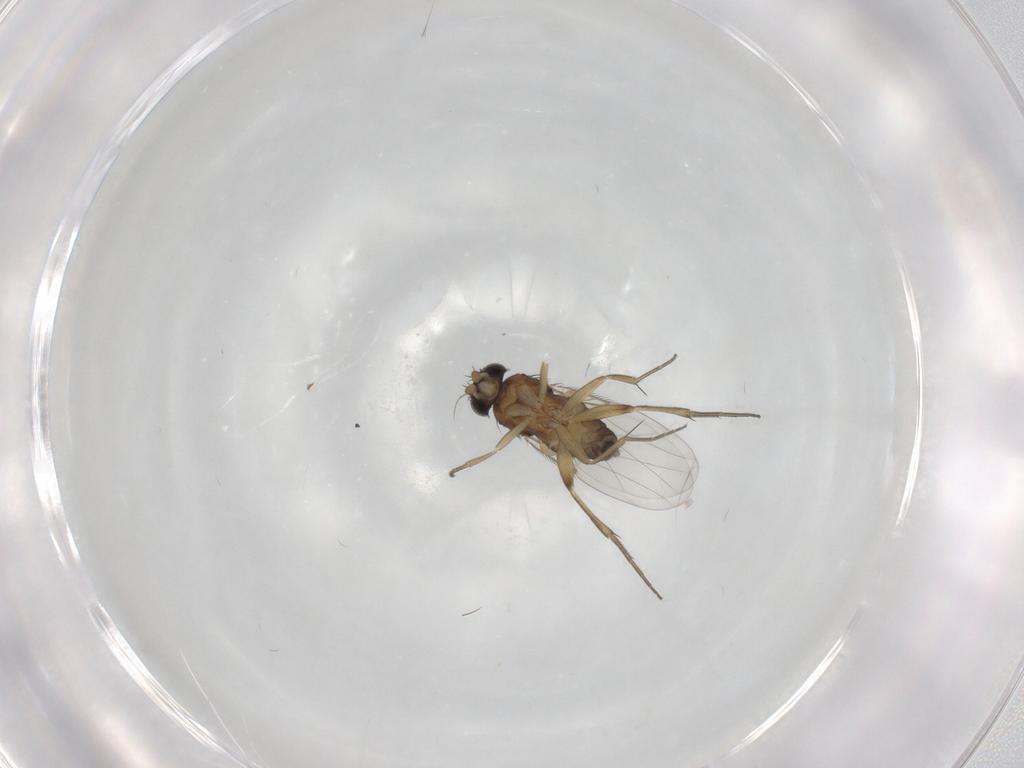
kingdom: Animalia
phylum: Arthropoda
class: Insecta
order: Diptera
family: Phoridae
